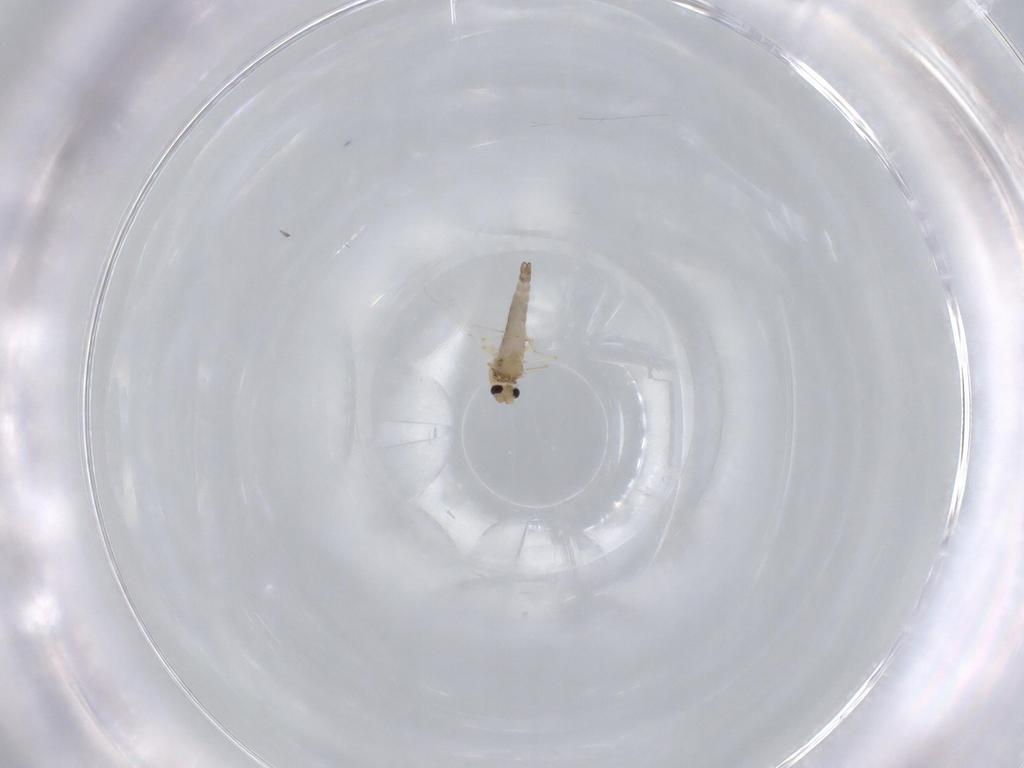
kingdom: Animalia
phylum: Arthropoda
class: Insecta
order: Diptera
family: Chironomidae
